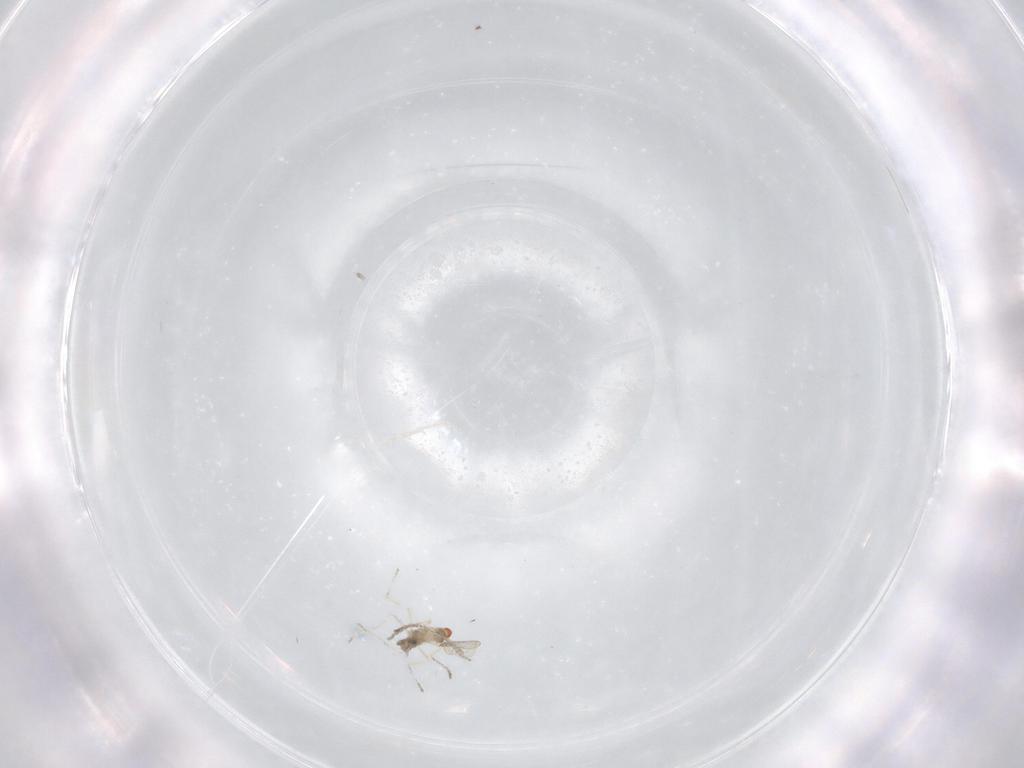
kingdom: Animalia
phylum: Arthropoda
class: Insecta
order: Diptera
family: Cecidomyiidae
